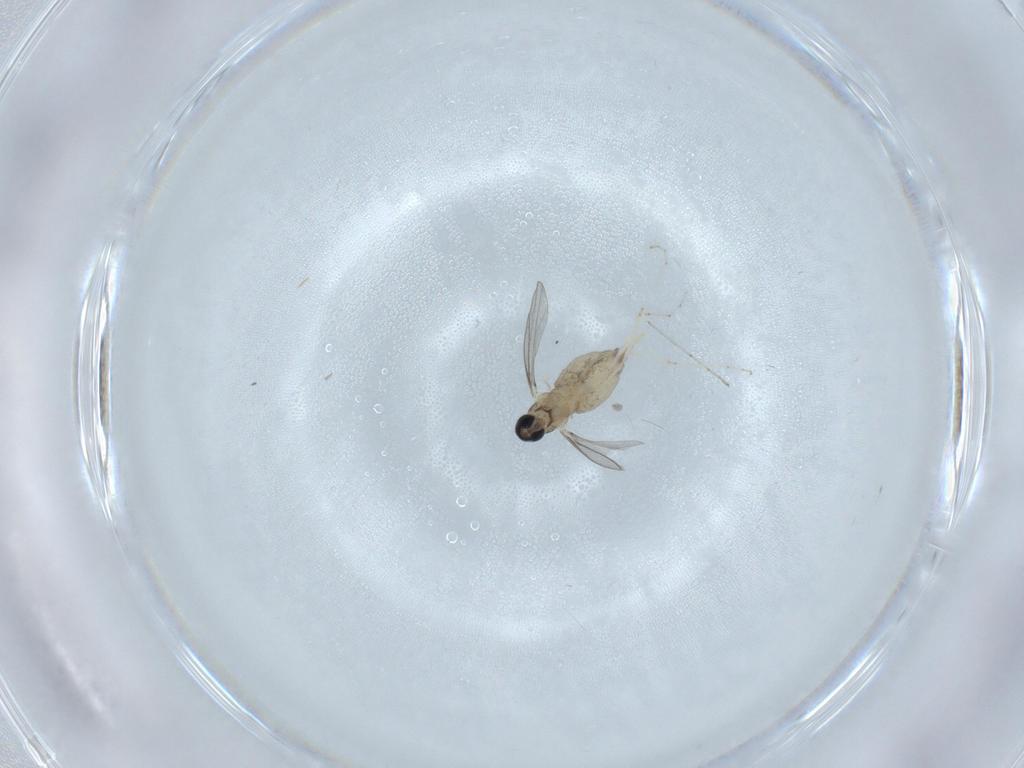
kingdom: Animalia
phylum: Arthropoda
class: Insecta
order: Diptera
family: Cecidomyiidae
